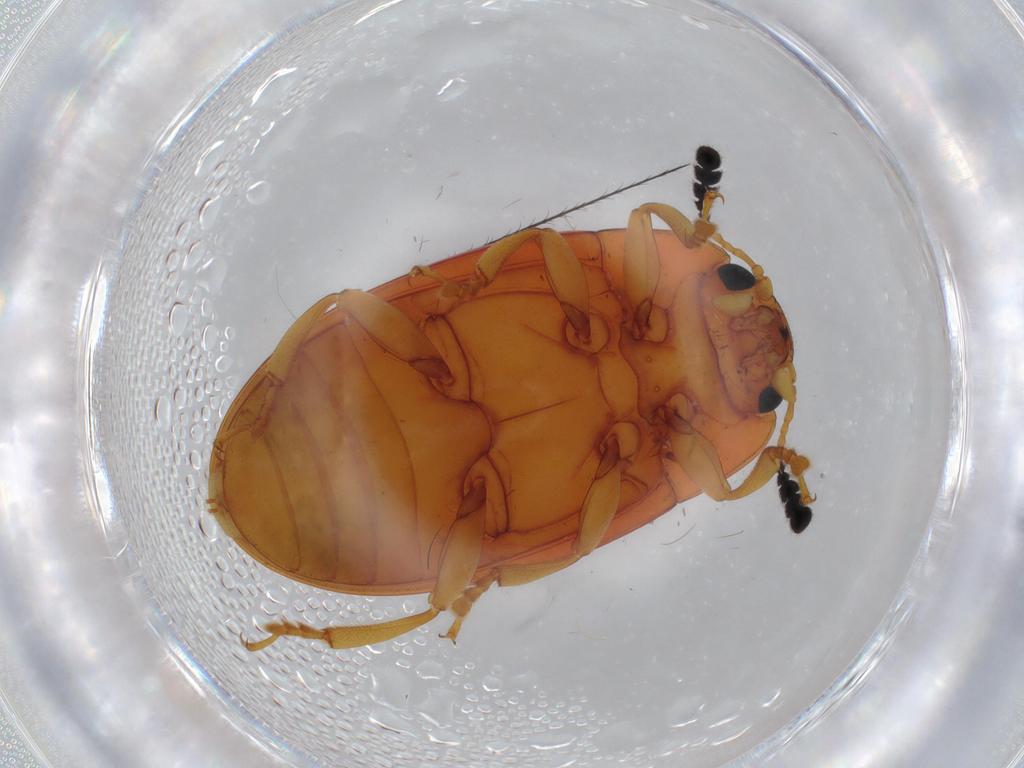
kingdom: Animalia
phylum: Arthropoda
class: Insecta
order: Coleoptera
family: Erotylidae
